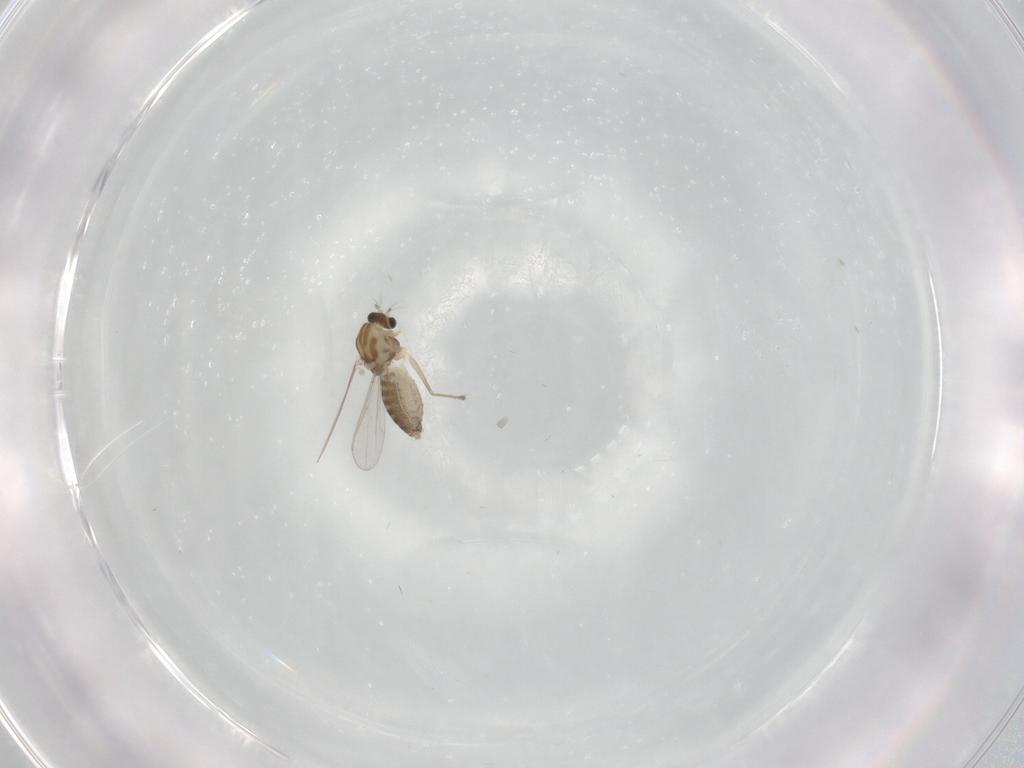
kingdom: Animalia
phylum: Arthropoda
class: Insecta
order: Diptera
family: Chironomidae
